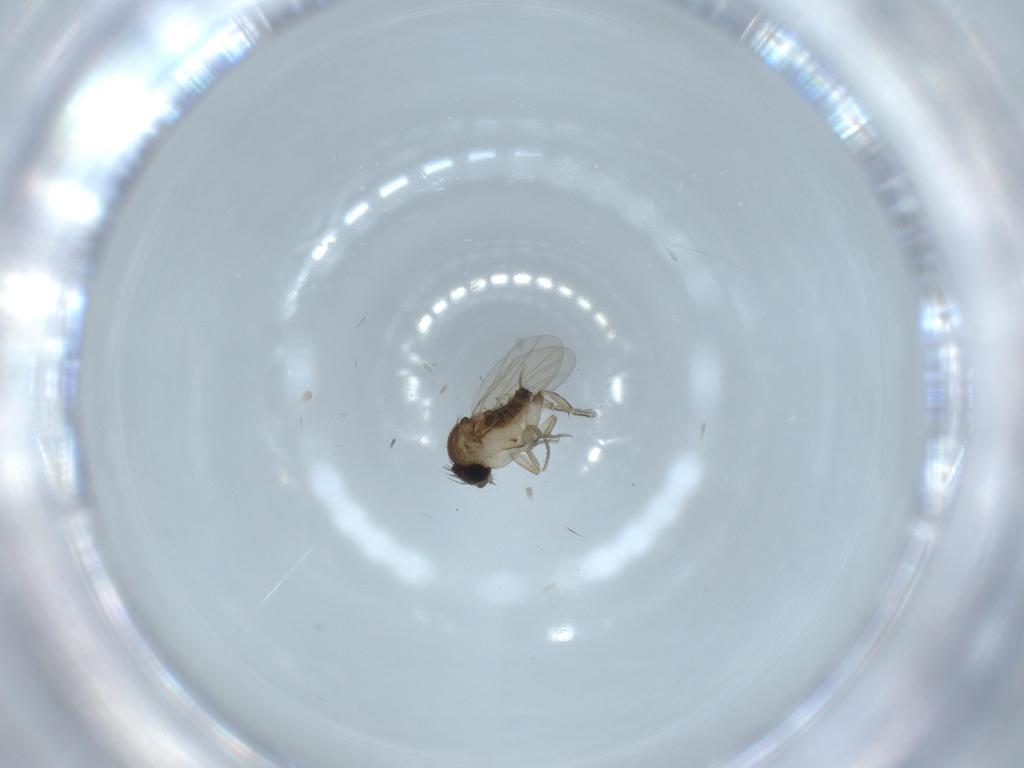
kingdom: Animalia
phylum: Arthropoda
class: Insecta
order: Diptera
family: Phoridae
